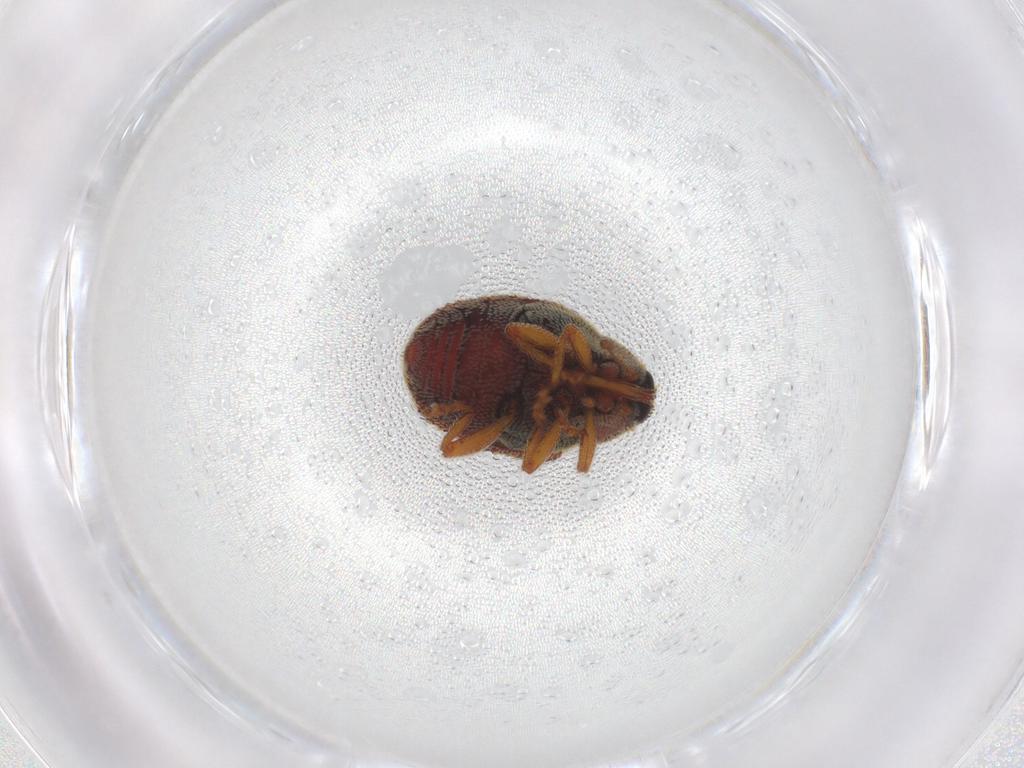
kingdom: Animalia
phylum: Arthropoda
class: Insecta
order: Coleoptera
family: Curculionidae
